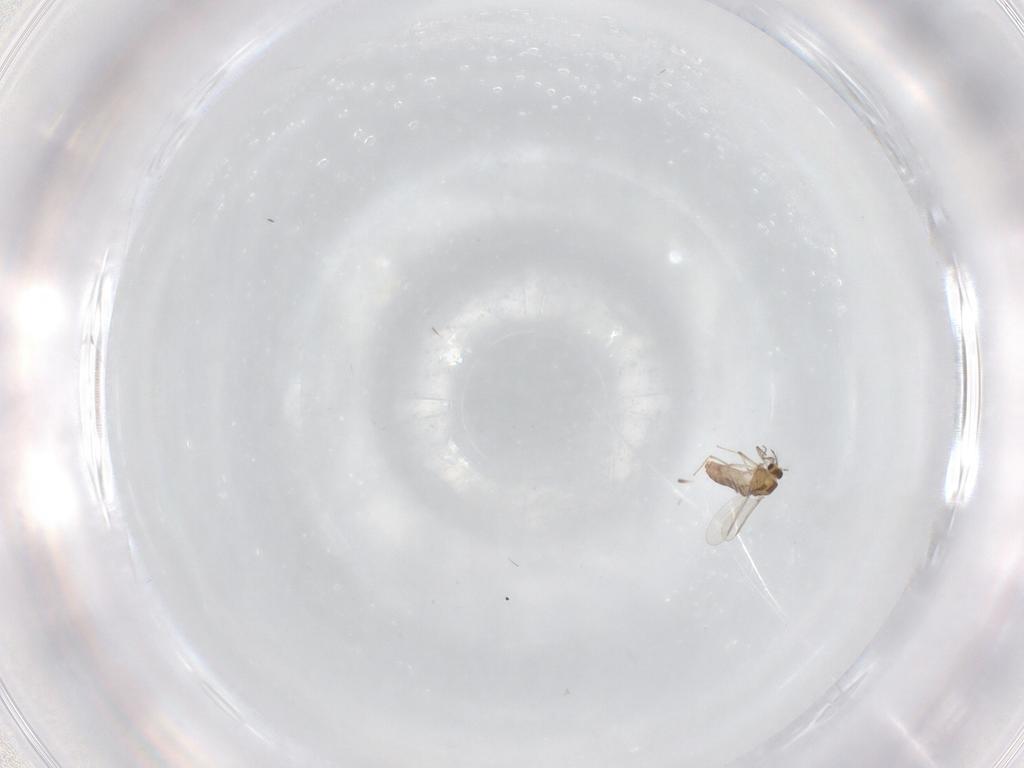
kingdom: Animalia
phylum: Arthropoda
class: Insecta
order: Diptera
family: Chironomidae
